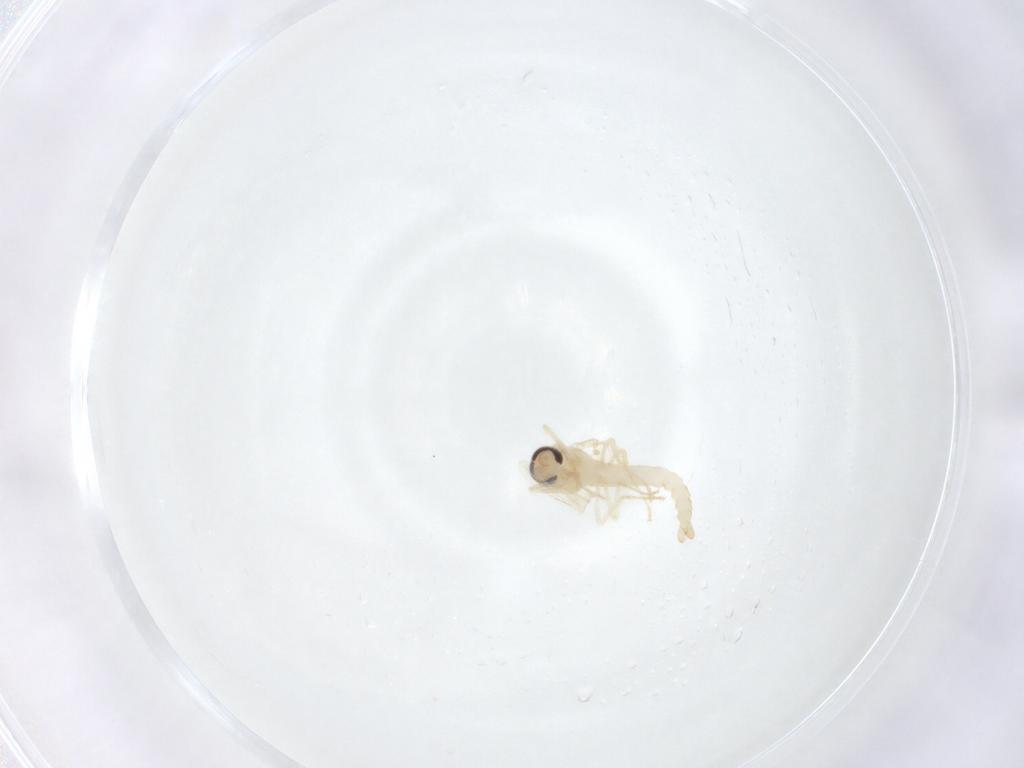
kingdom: Animalia
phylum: Arthropoda
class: Insecta
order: Diptera
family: Ceratopogonidae
